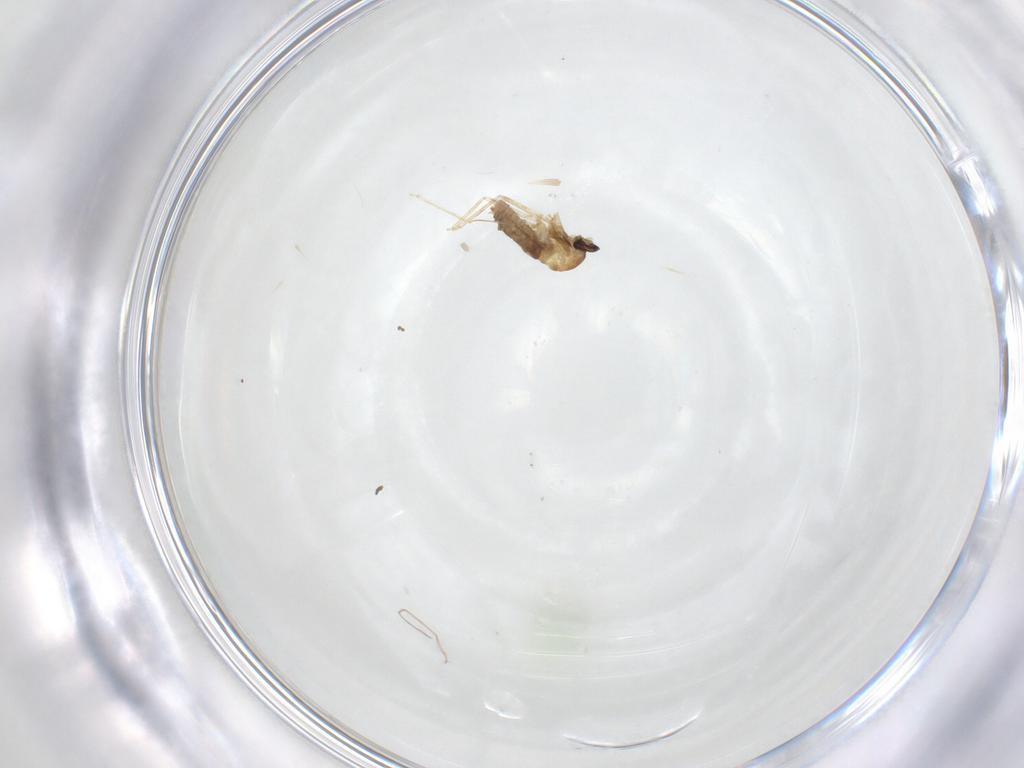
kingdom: Animalia
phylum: Arthropoda
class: Insecta
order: Diptera
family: Cecidomyiidae
